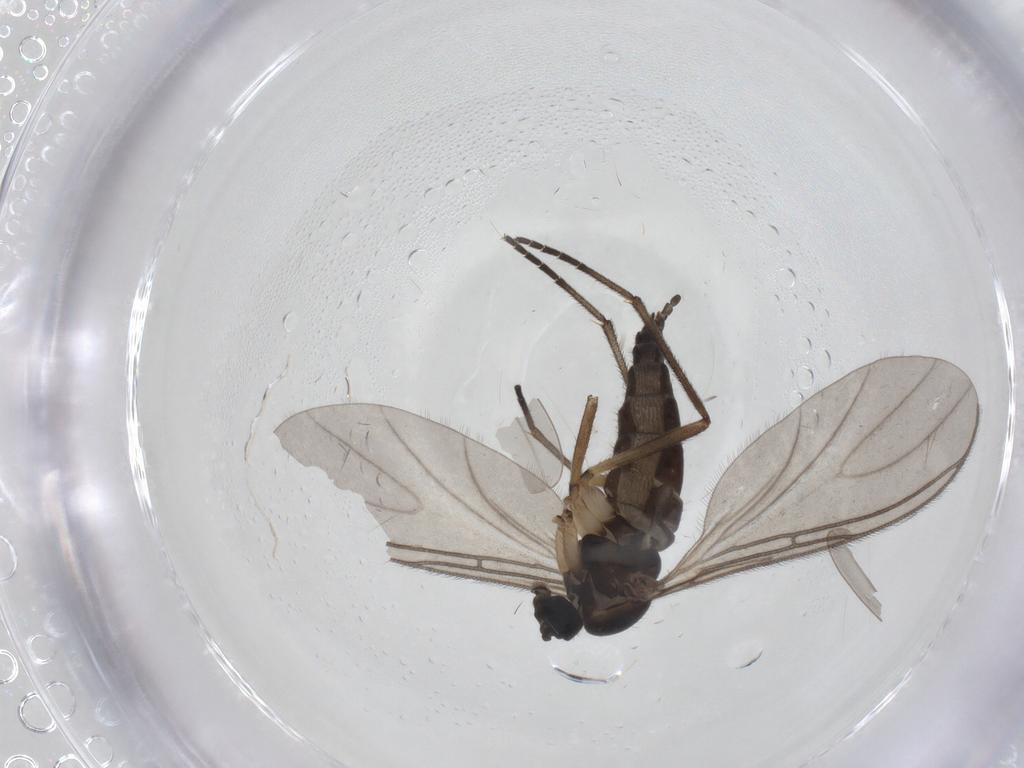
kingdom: Animalia
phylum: Arthropoda
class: Insecta
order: Diptera
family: Sciaridae
